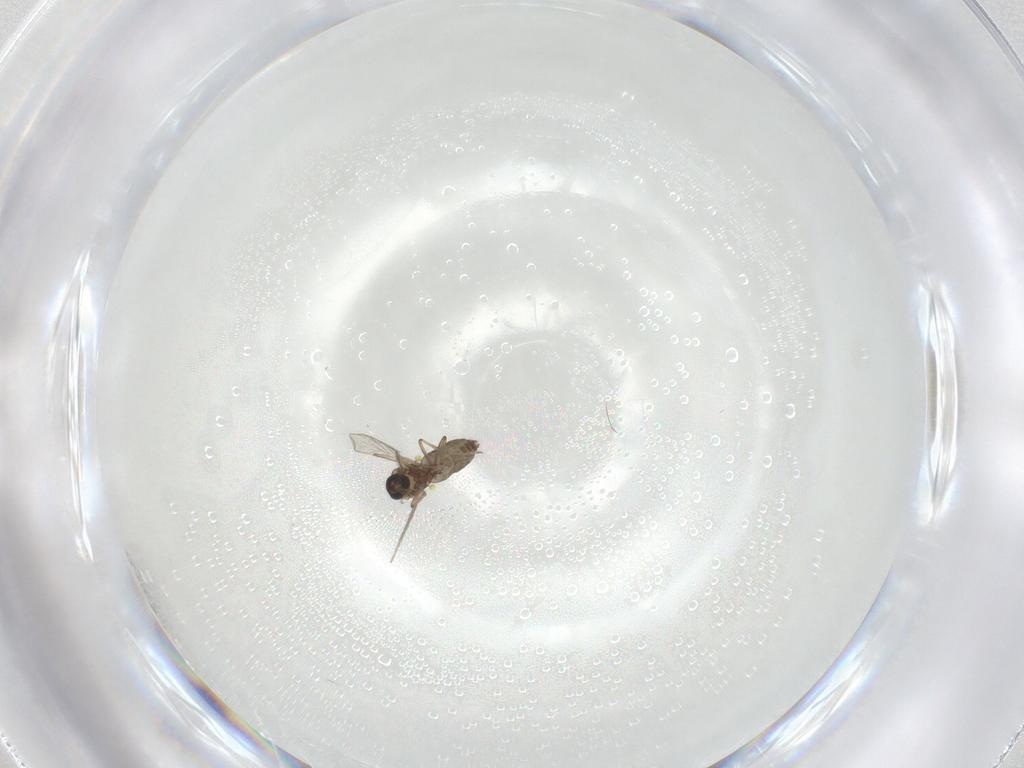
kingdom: Animalia
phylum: Arthropoda
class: Insecta
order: Diptera
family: Ceratopogonidae
